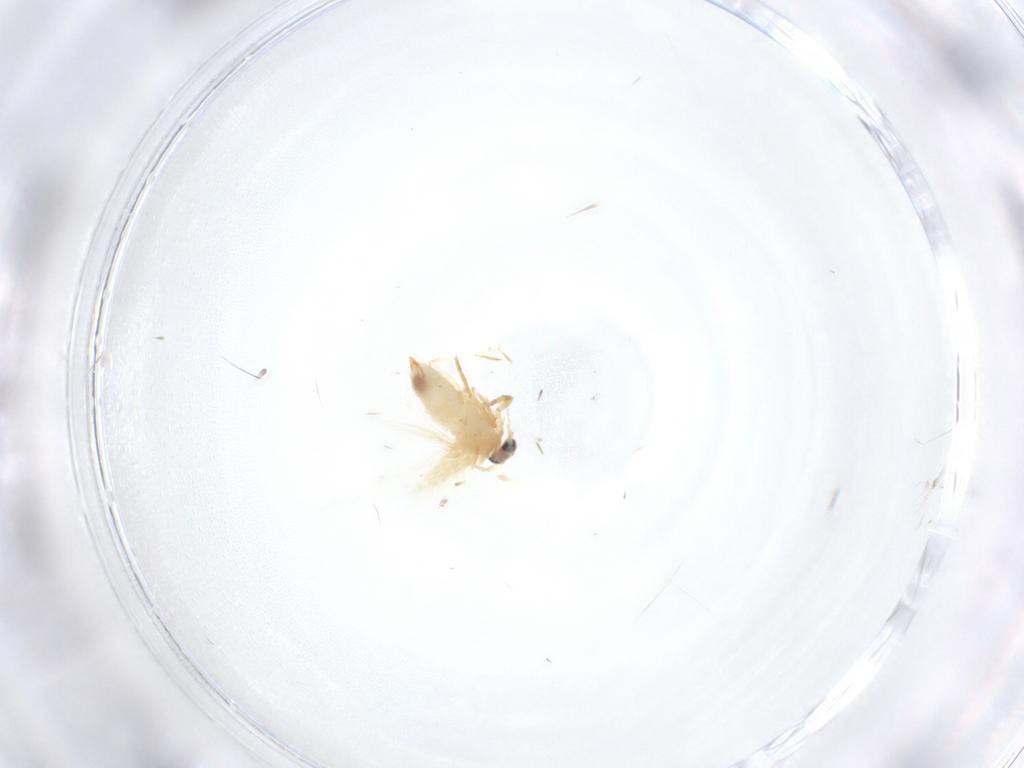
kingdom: Animalia
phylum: Arthropoda
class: Insecta
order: Lepidoptera
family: Nepticulidae
